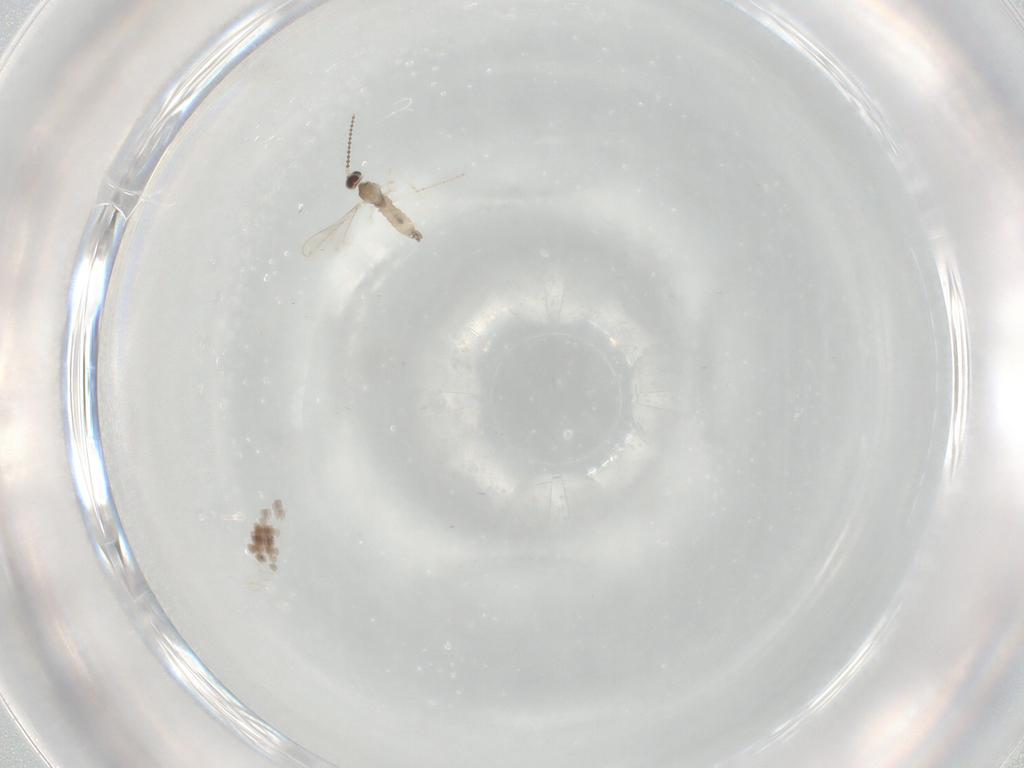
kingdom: Animalia
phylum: Arthropoda
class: Insecta
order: Diptera
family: Cecidomyiidae
